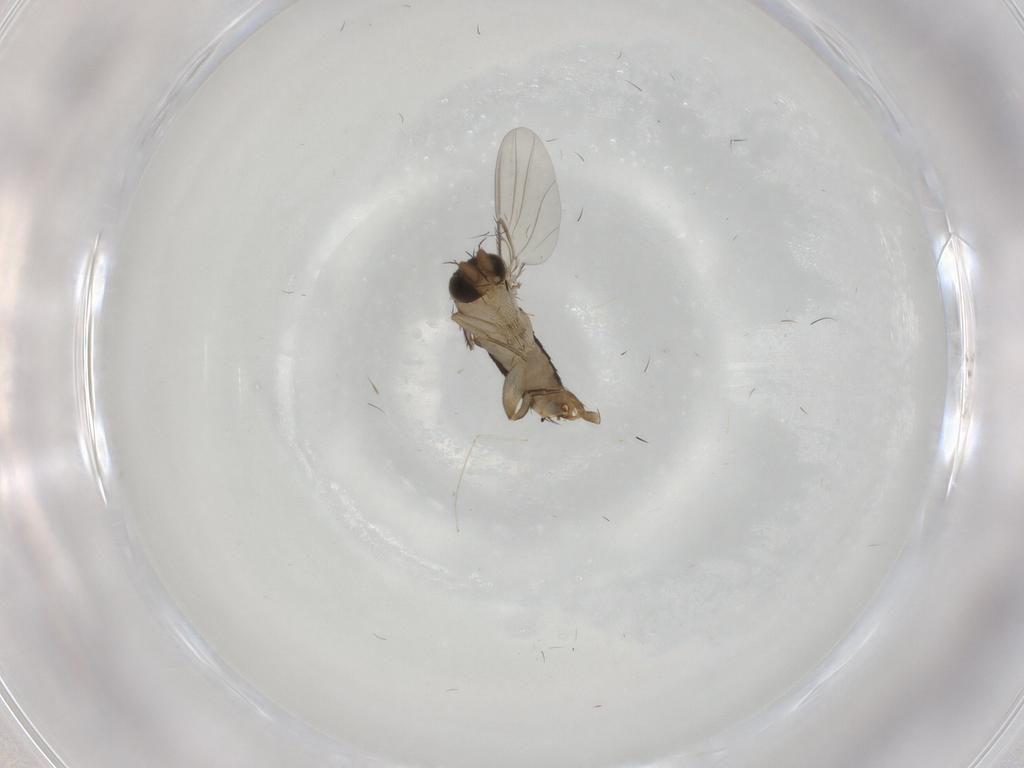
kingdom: Animalia
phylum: Arthropoda
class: Insecta
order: Diptera
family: Phoridae
